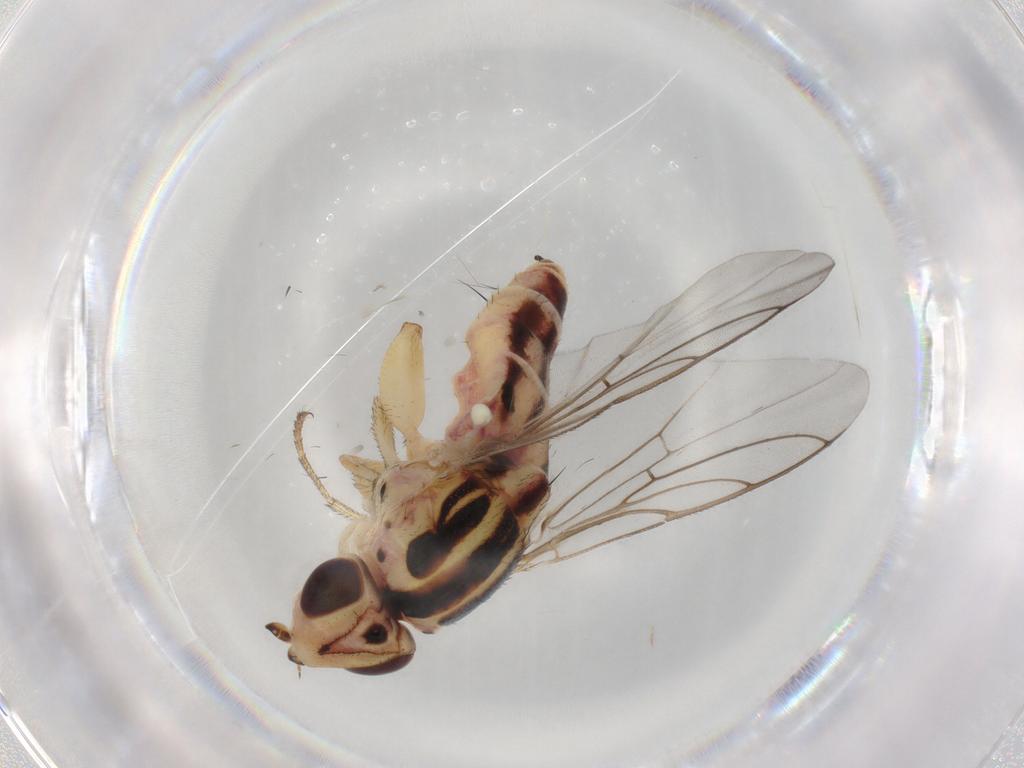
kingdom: Animalia
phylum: Arthropoda
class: Insecta
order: Diptera
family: Chloropidae
